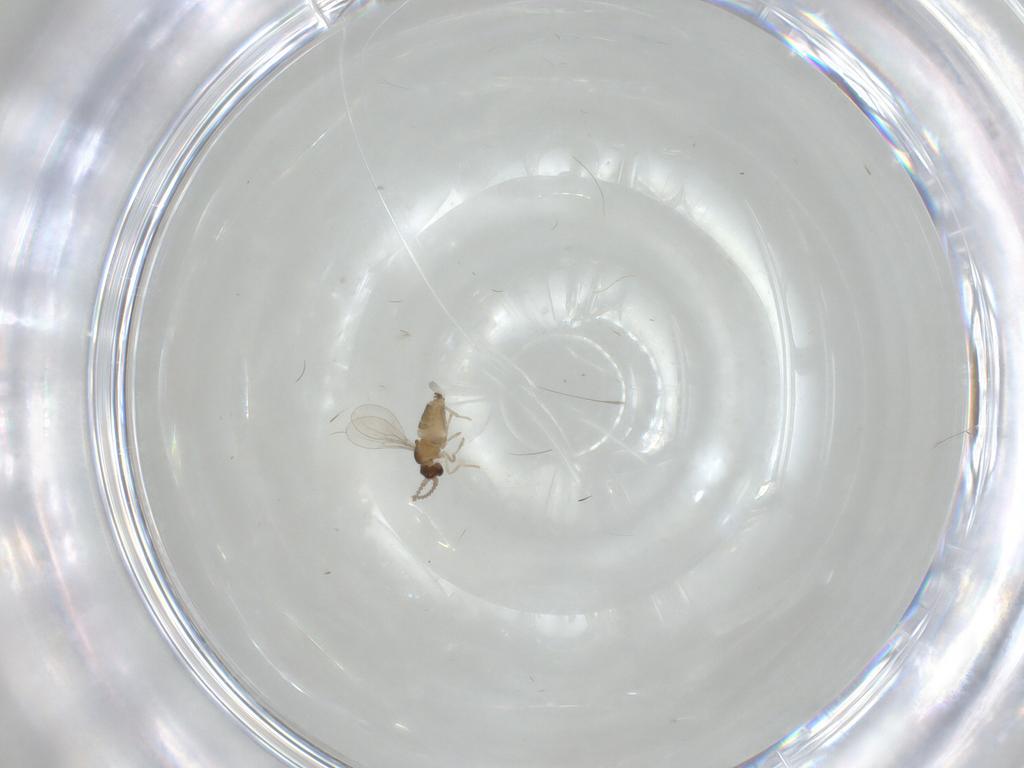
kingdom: Animalia
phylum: Arthropoda
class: Insecta
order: Diptera
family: Cecidomyiidae
